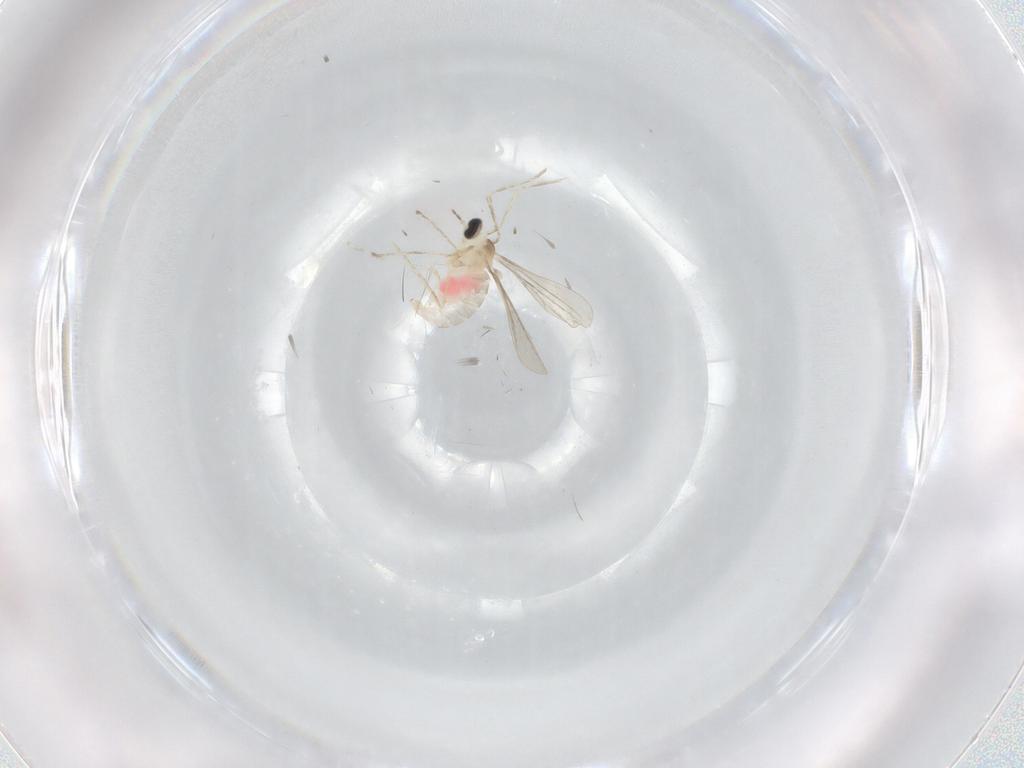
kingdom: Animalia
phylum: Arthropoda
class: Insecta
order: Diptera
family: Cecidomyiidae
